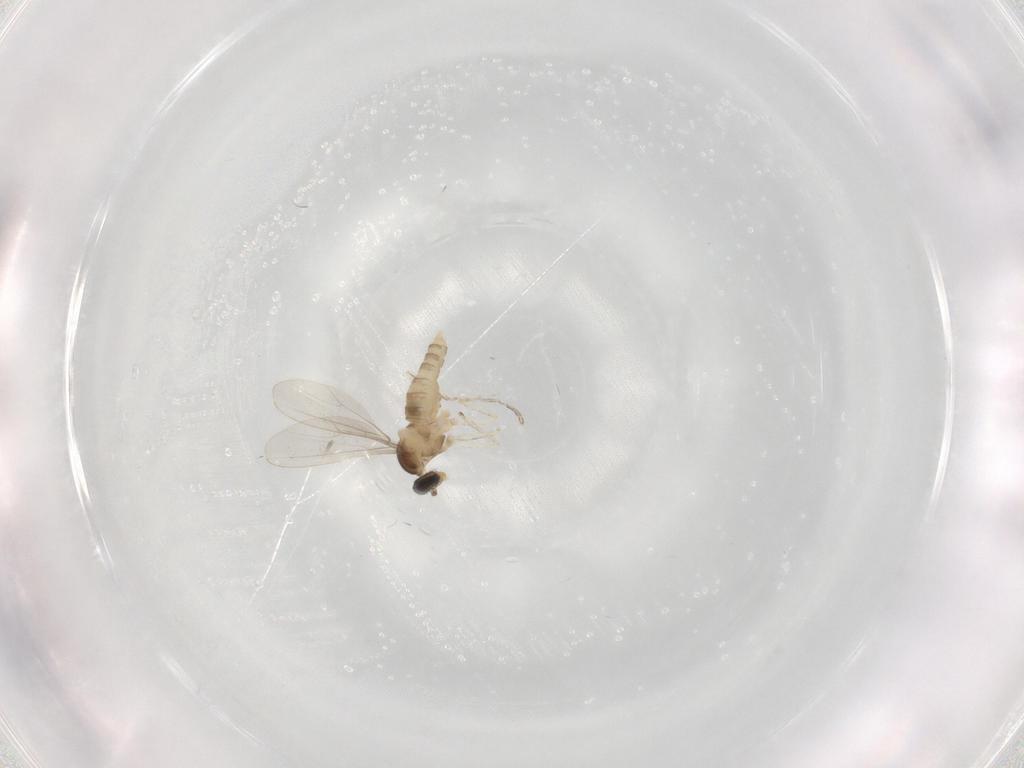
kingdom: Animalia
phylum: Arthropoda
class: Insecta
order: Diptera
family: Cecidomyiidae
